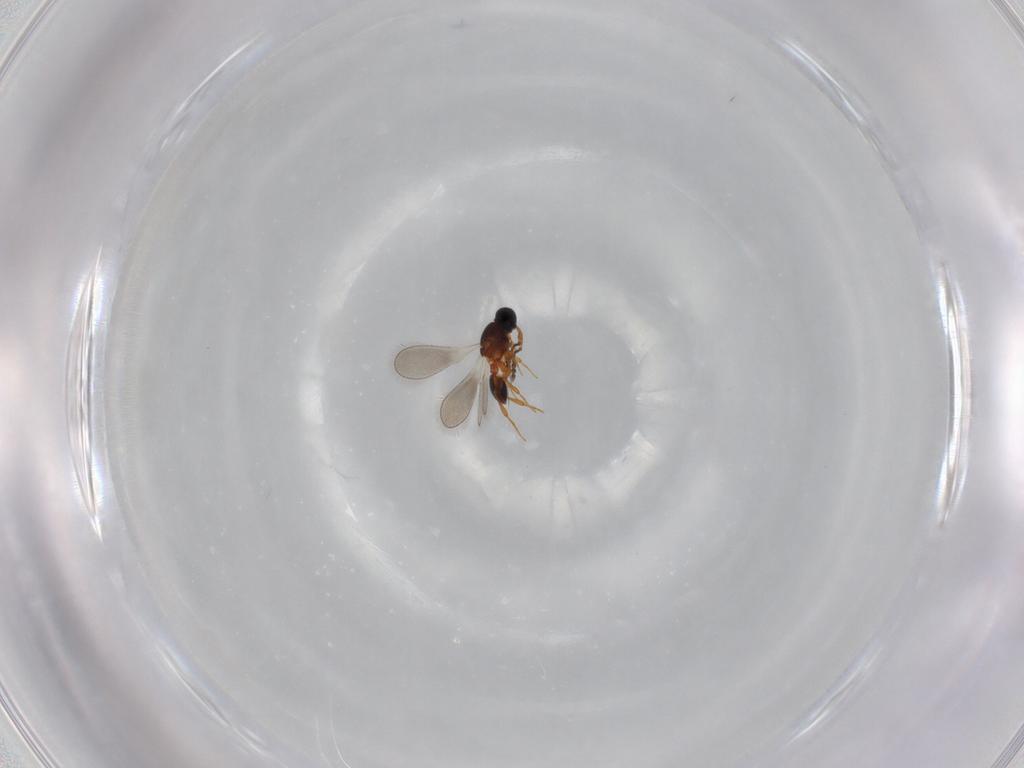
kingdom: Animalia
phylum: Arthropoda
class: Insecta
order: Hymenoptera
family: Platygastridae
